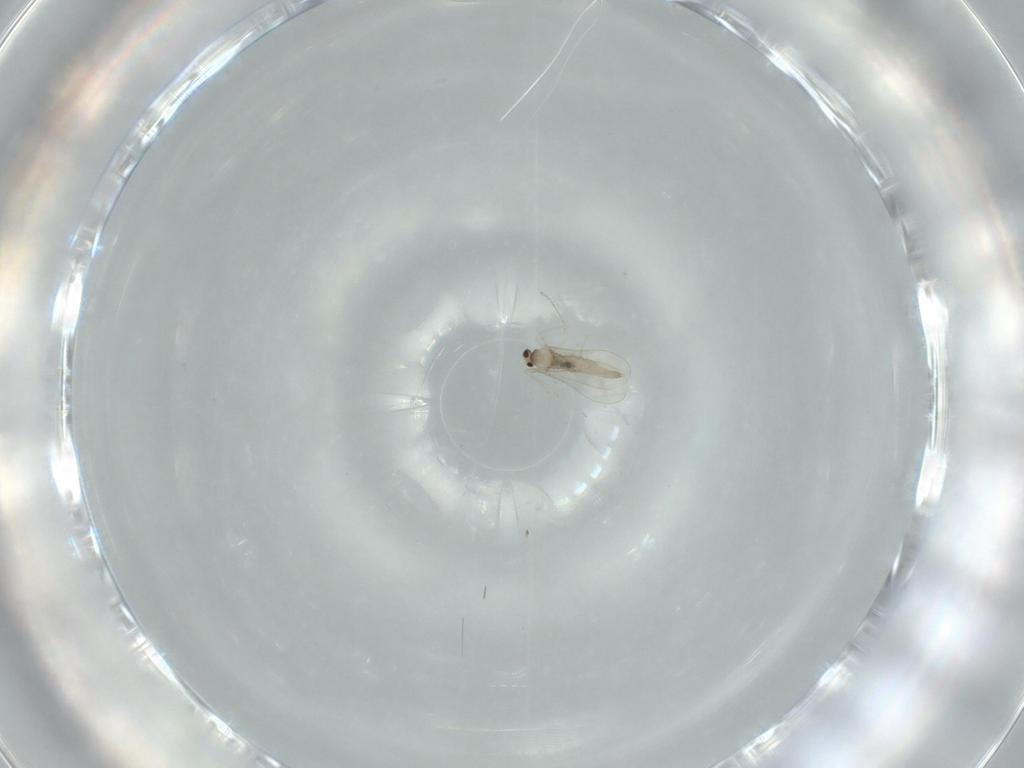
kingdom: Animalia
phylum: Arthropoda
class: Insecta
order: Diptera
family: Cecidomyiidae
